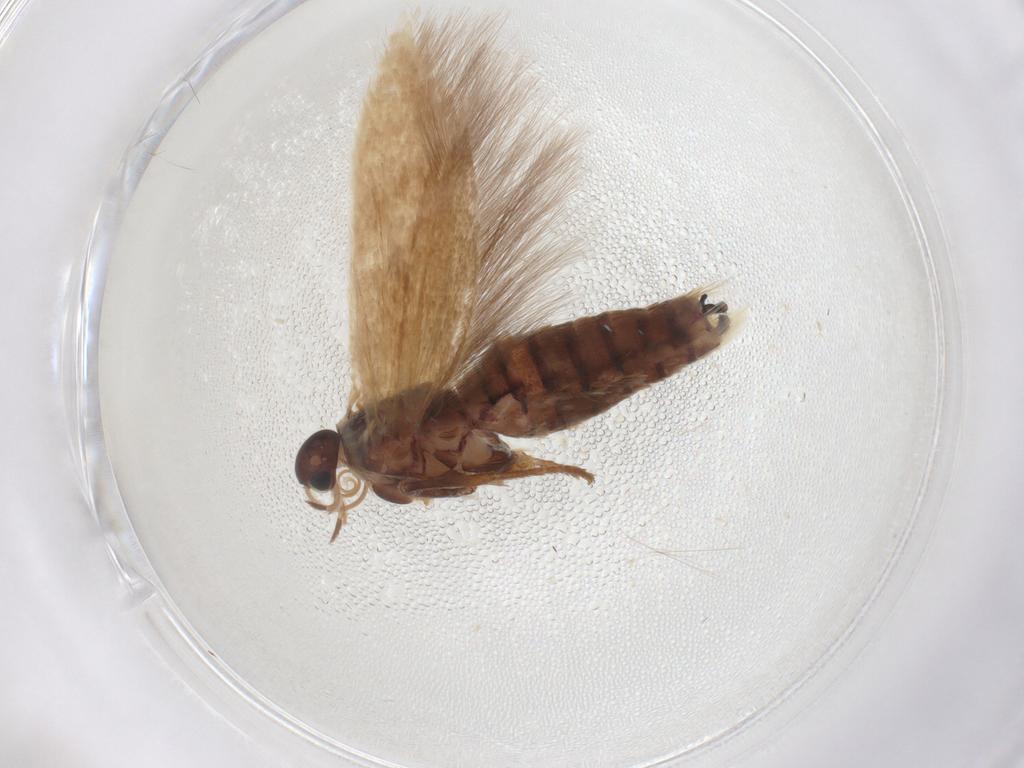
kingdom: Animalia
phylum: Arthropoda
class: Insecta
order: Lepidoptera
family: Scythrididae
